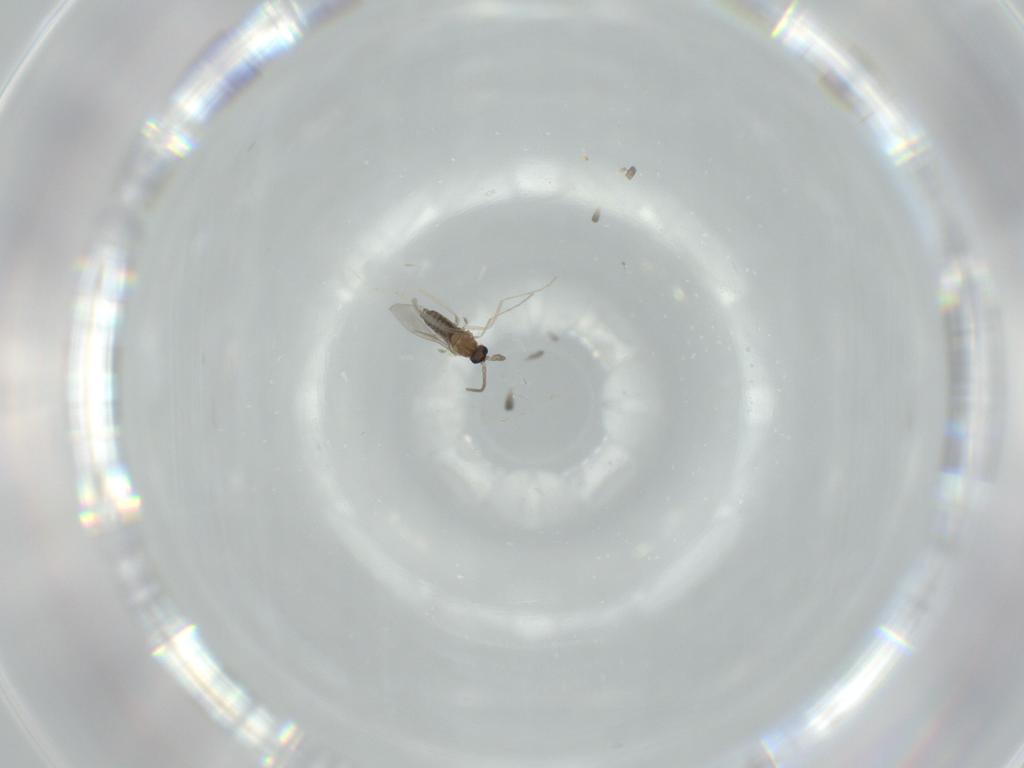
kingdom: Animalia
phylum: Arthropoda
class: Insecta
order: Diptera
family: Cecidomyiidae
